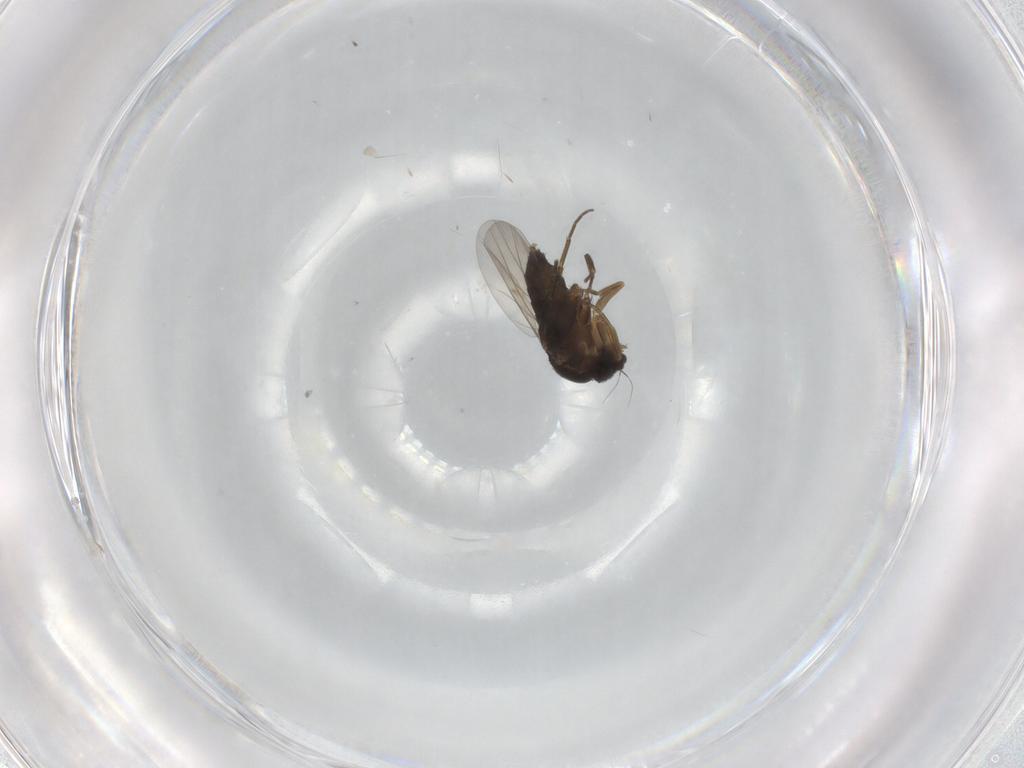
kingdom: Animalia
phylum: Arthropoda
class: Insecta
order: Diptera
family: Phoridae
